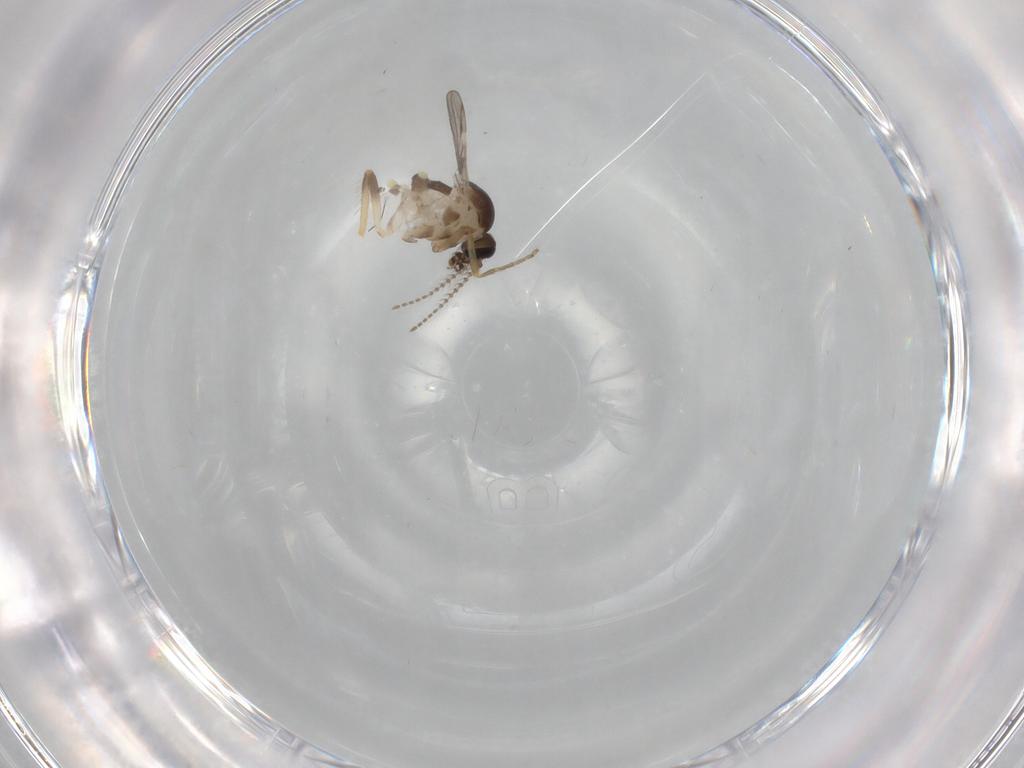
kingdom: Animalia
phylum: Arthropoda
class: Insecta
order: Diptera
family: Ceratopogonidae
